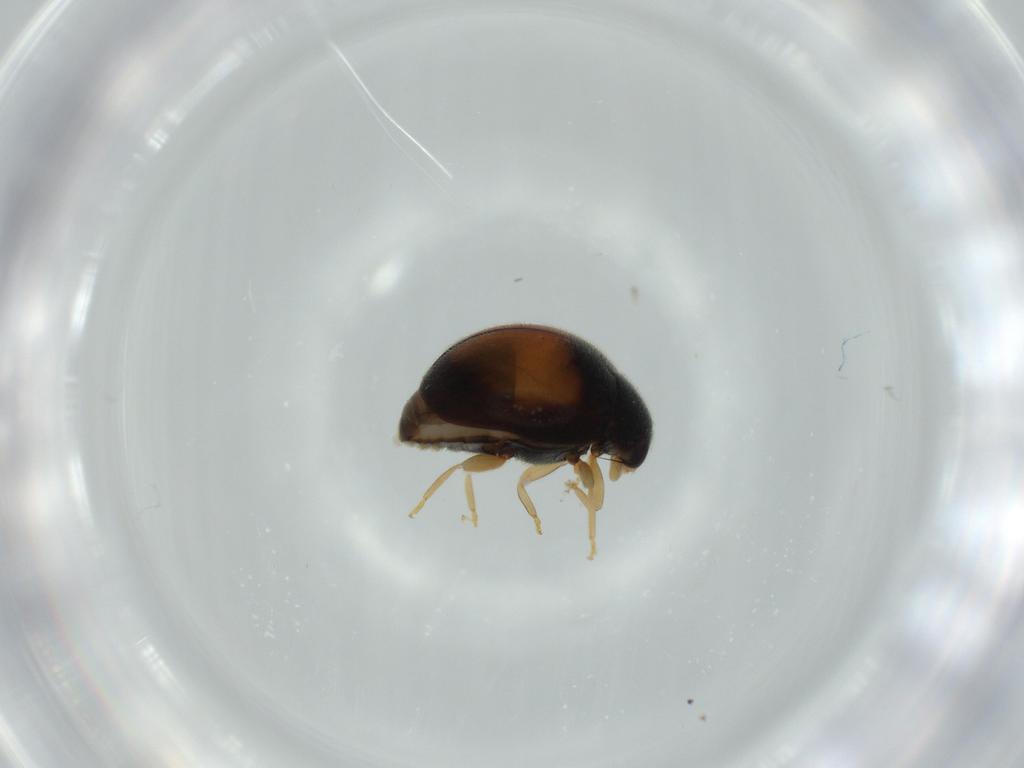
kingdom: Animalia
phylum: Arthropoda
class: Insecta
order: Coleoptera
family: Coccinellidae
